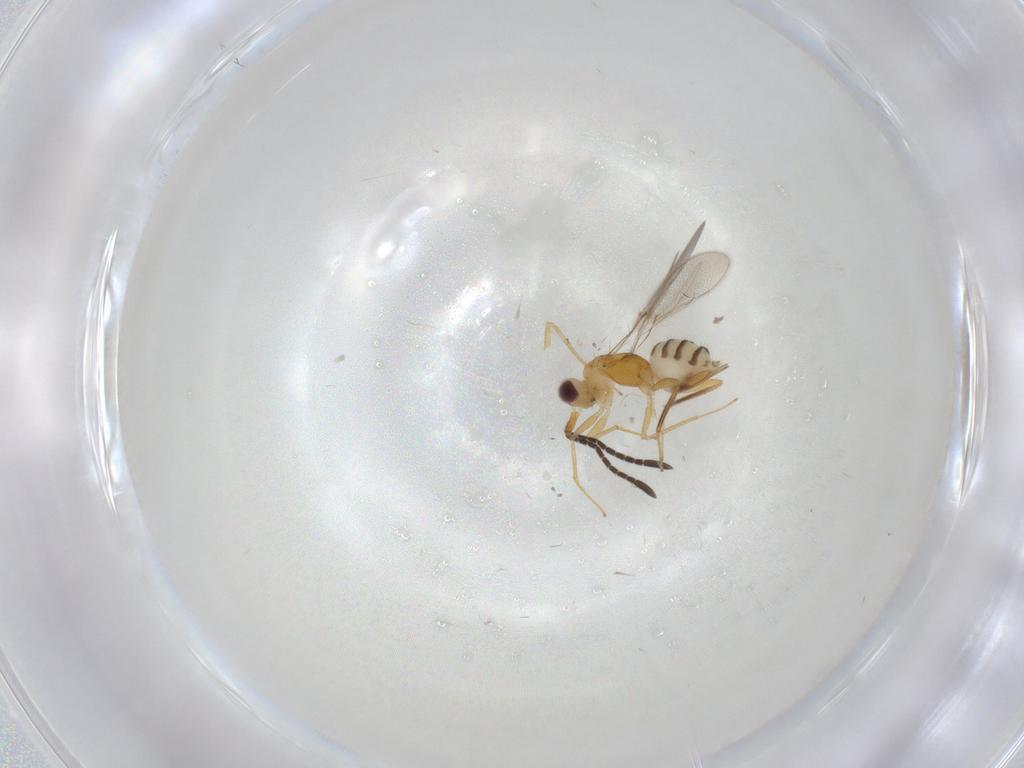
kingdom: Animalia
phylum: Arthropoda
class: Insecta
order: Hymenoptera
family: Mymaridae
